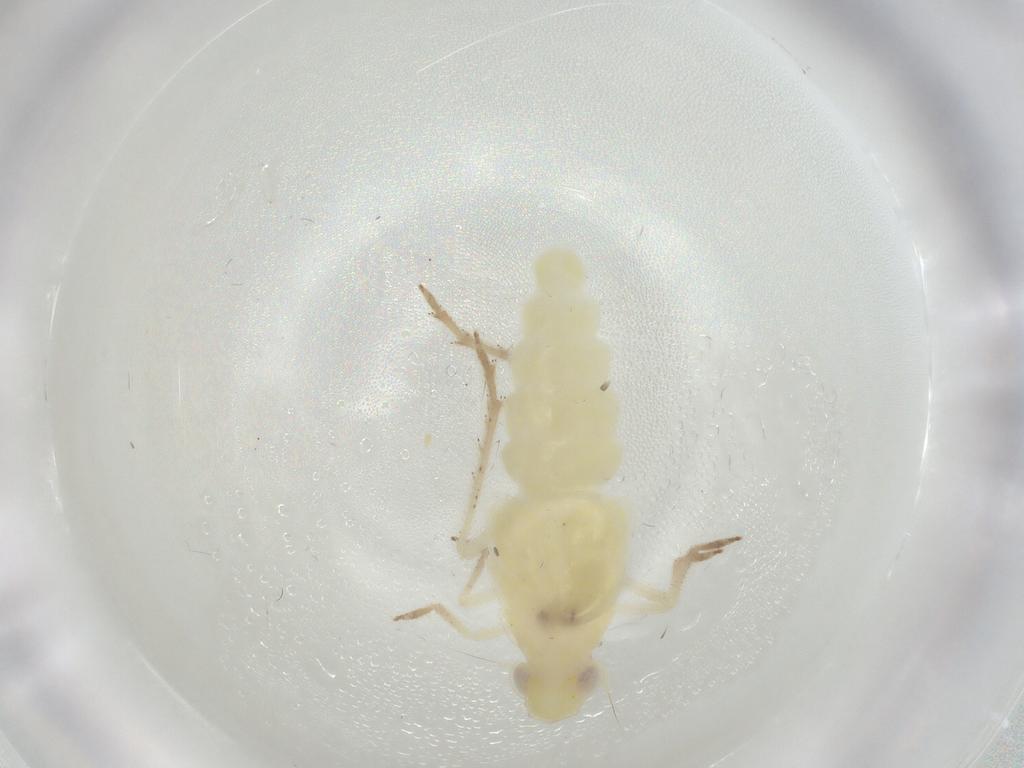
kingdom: Animalia
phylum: Arthropoda
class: Insecta
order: Hemiptera
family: Tropiduchidae
